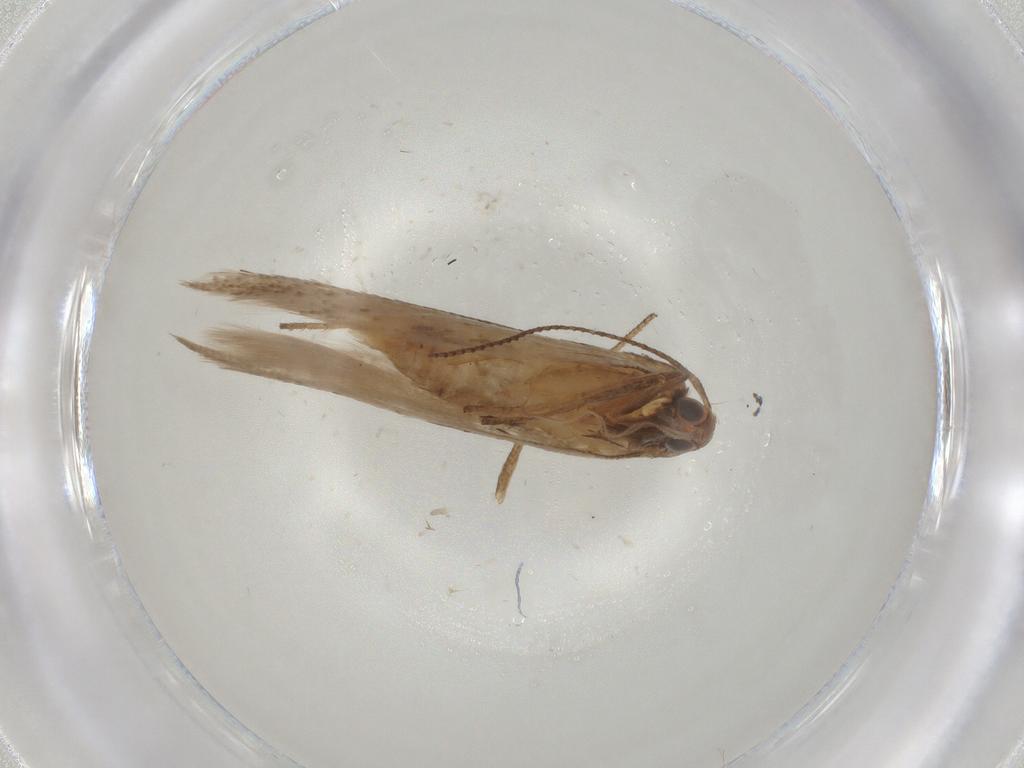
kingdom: Animalia
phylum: Arthropoda
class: Insecta
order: Lepidoptera
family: Gelechiidae
